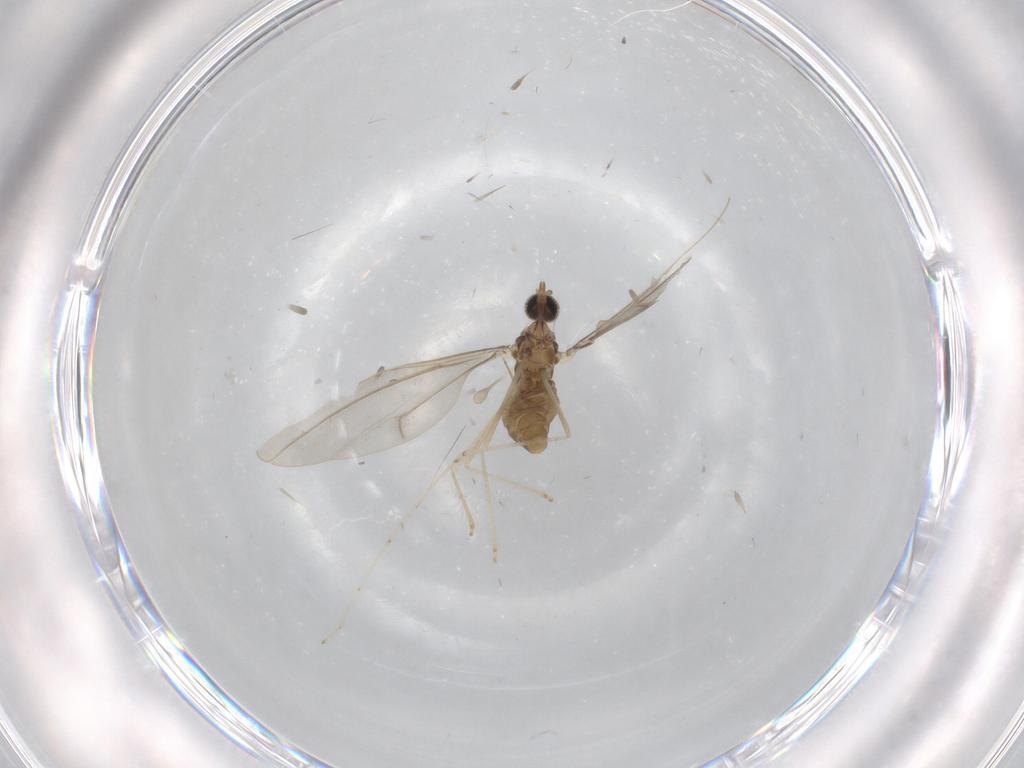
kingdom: Animalia
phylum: Arthropoda
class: Insecta
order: Diptera
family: Cecidomyiidae
